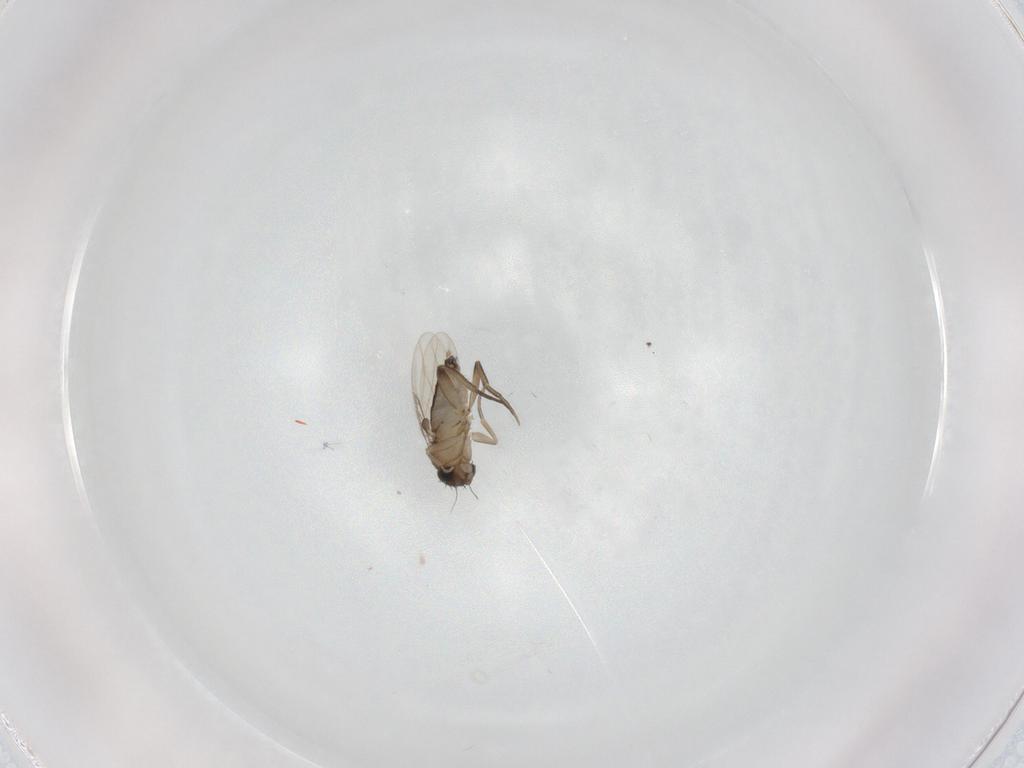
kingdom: Animalia
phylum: Arthropoda
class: Insecta
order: Diptera
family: Phoridae
